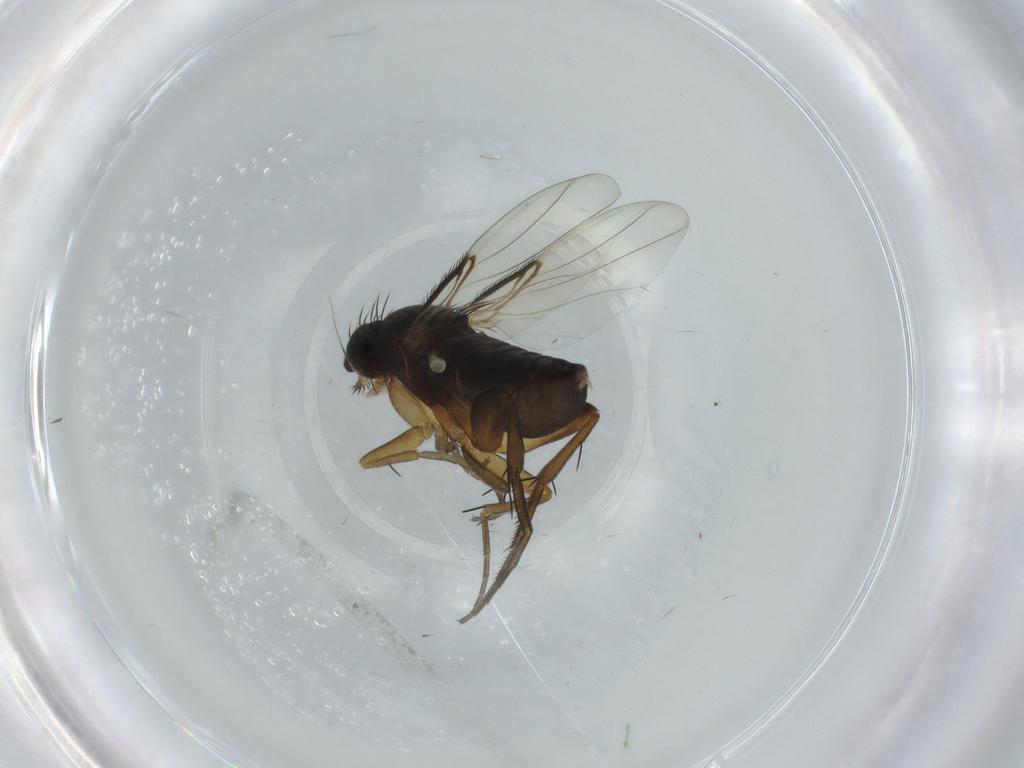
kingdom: Animalia
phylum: Arthropoda
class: Insecta
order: Diptera
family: Phoridae
